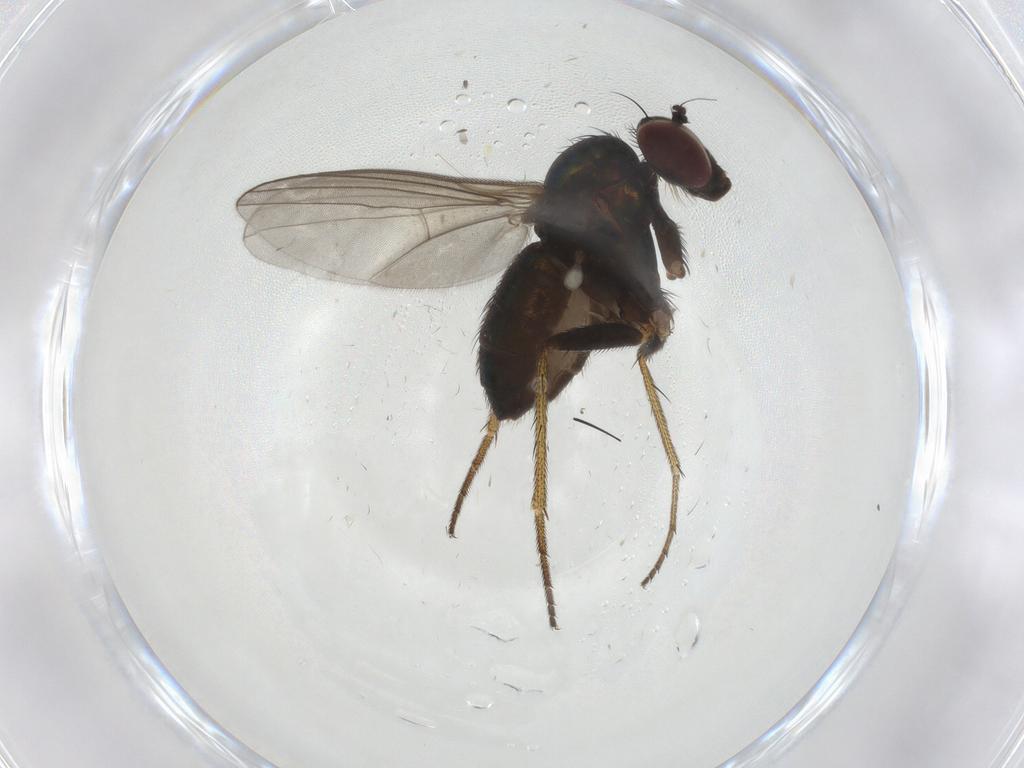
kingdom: Animalia
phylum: Arthropoda
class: Insecta
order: Diptera
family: Cecidomyiidae
